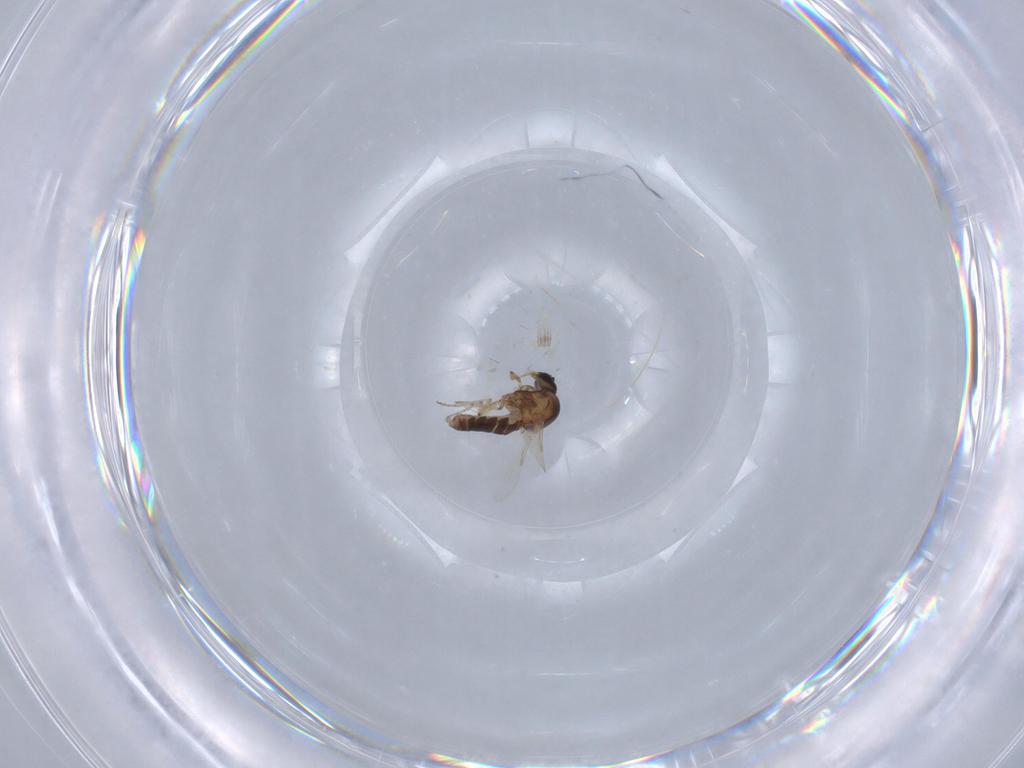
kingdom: Animalia
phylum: Arthropoda
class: Insecta
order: Diptera
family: Ceratopogonidae
